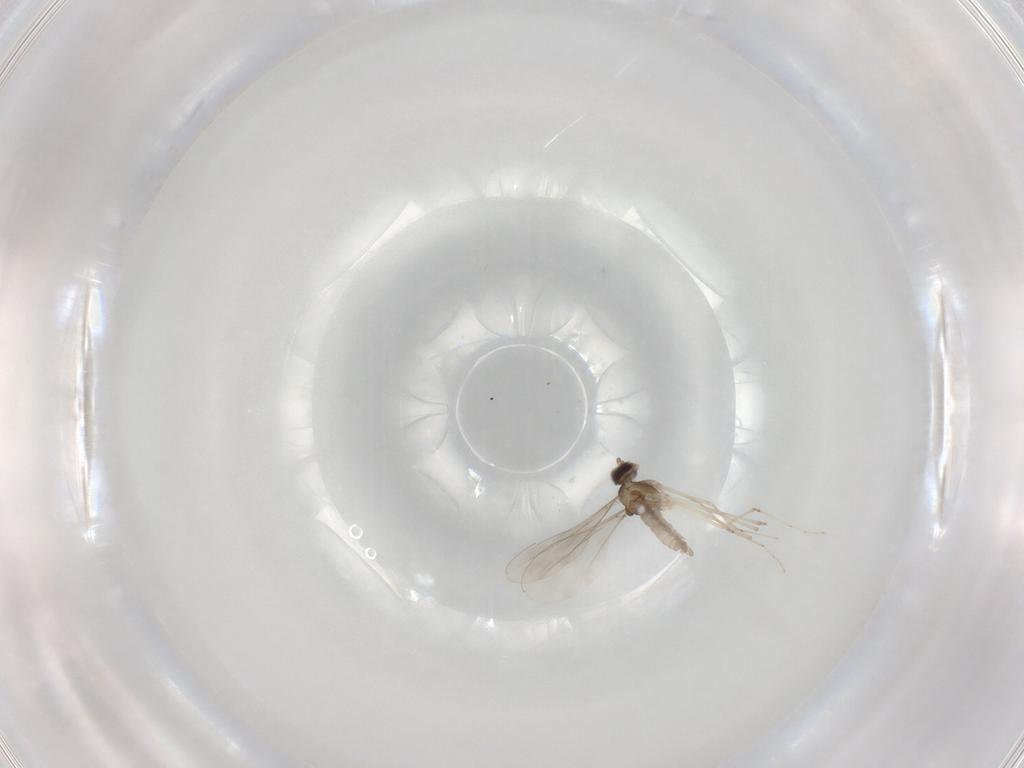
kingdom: Animalia
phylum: Arthropoda
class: Insecta
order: Diptera
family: Cecidomyiidae
